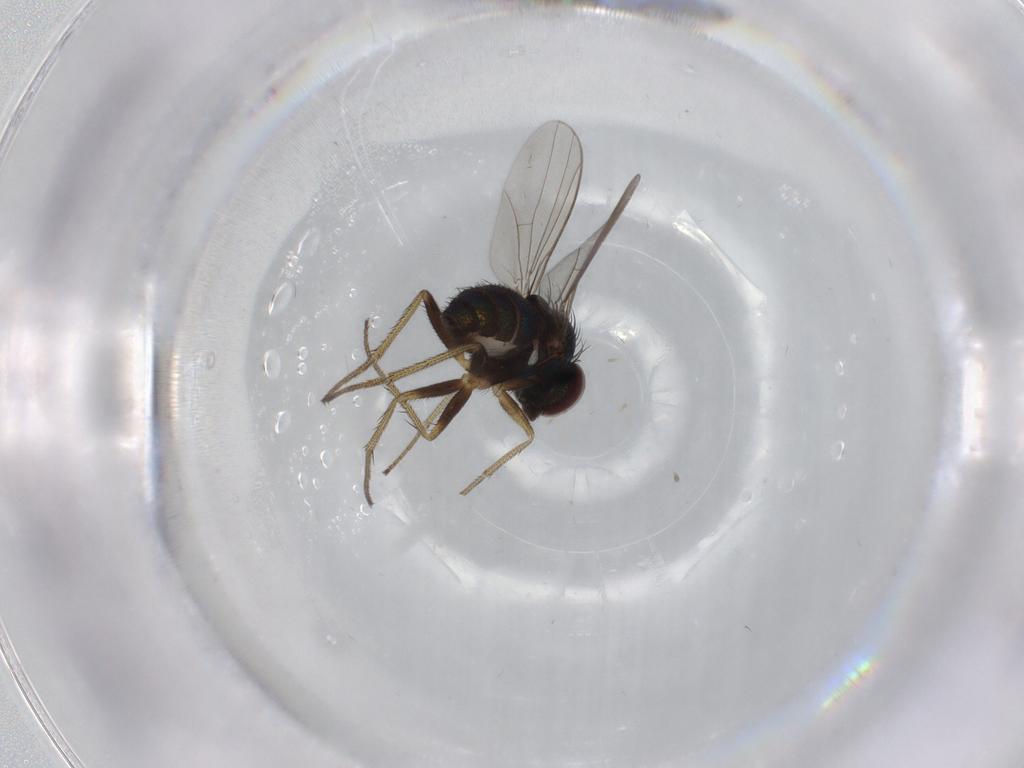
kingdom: Animalia
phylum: Arthropoda
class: Insecta
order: Diptera
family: Dolichopodidae
